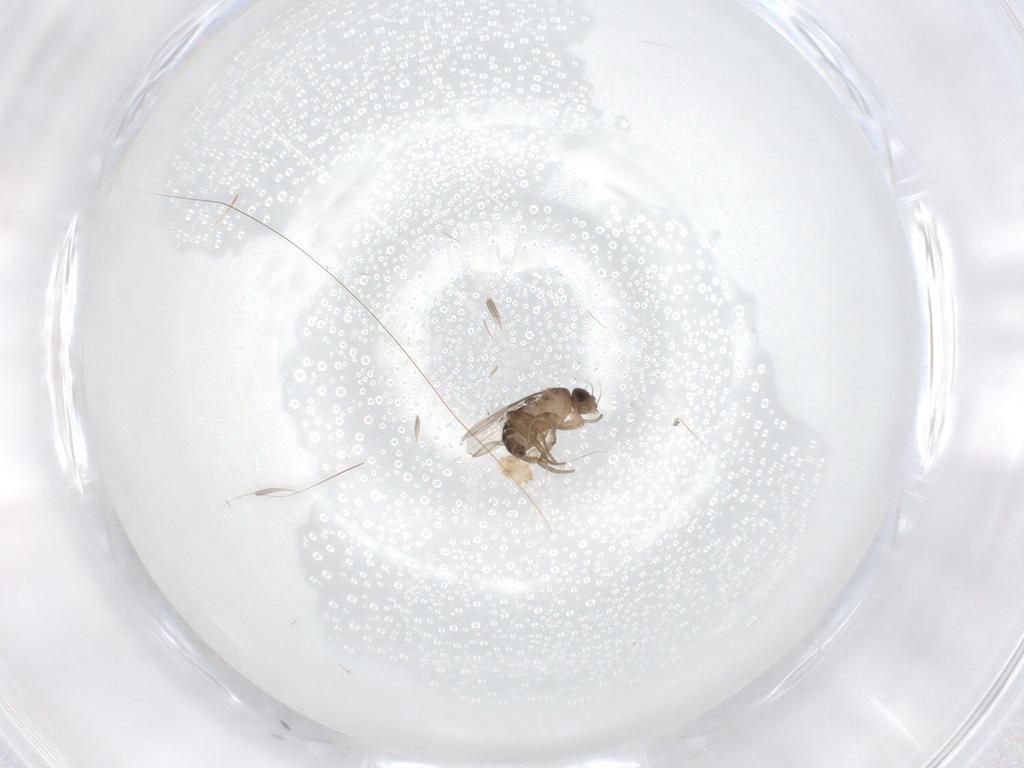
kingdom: Animalia
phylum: Arthropoda
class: Insecta
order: Diptera
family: Phoridae
